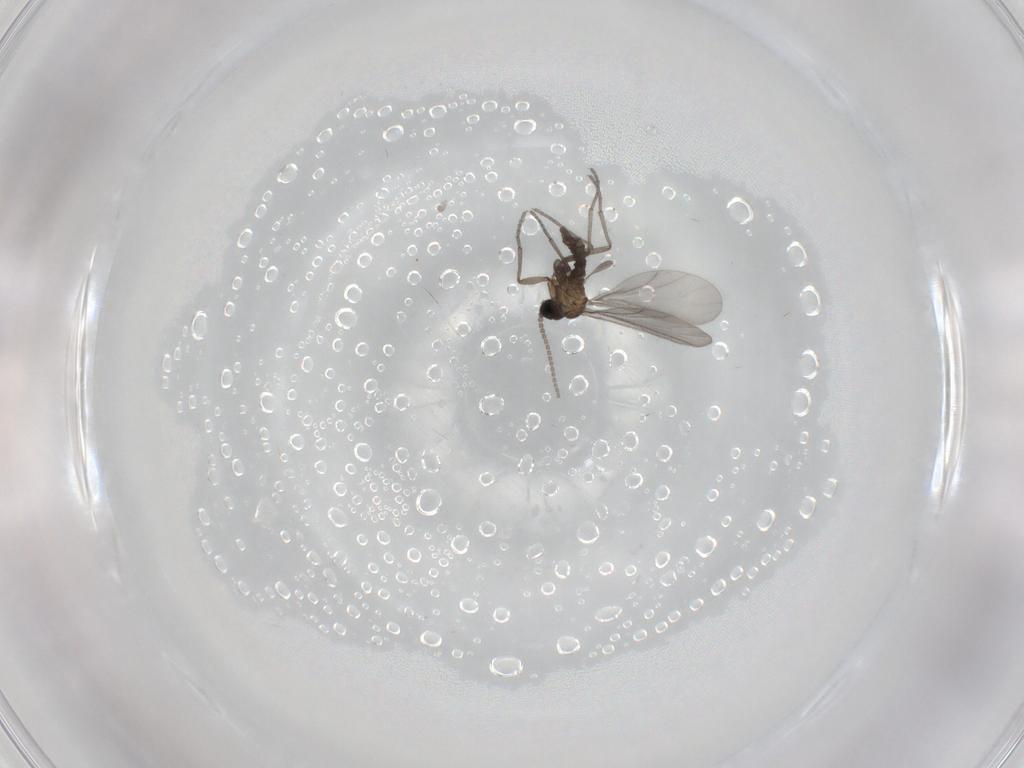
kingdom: Animalia
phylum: Arthropoda
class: Insecta
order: Diptera
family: Sciaridae
